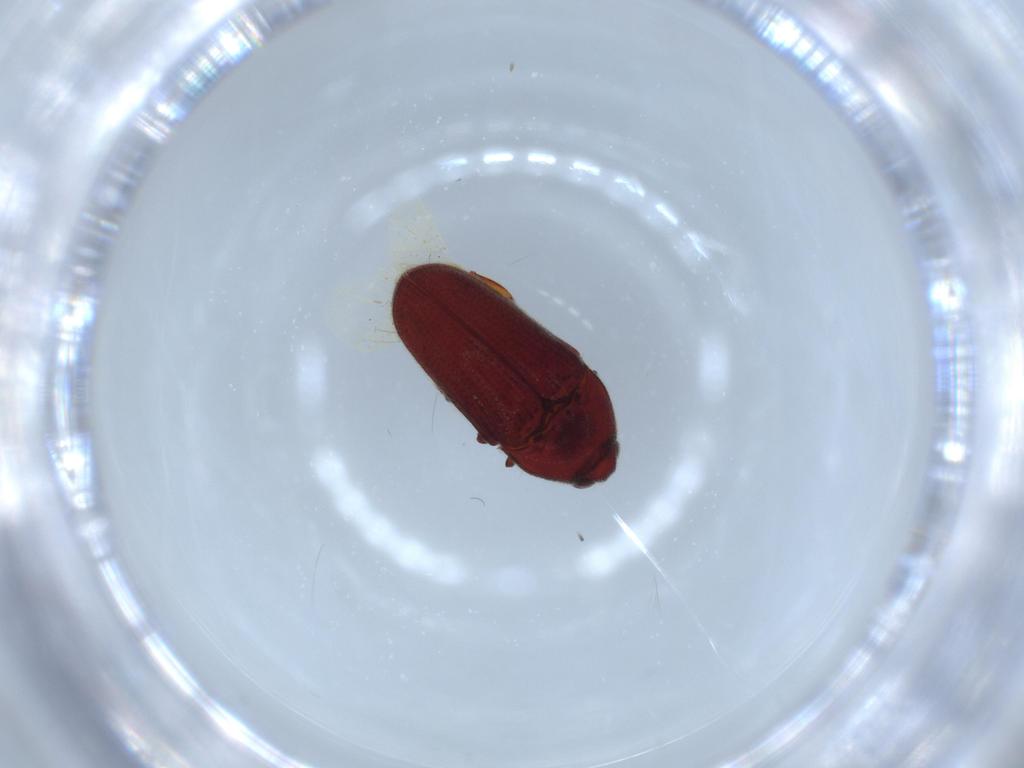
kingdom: Animalia
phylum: Arthropoda
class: Insecta
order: Coleoptera
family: Throscidae
